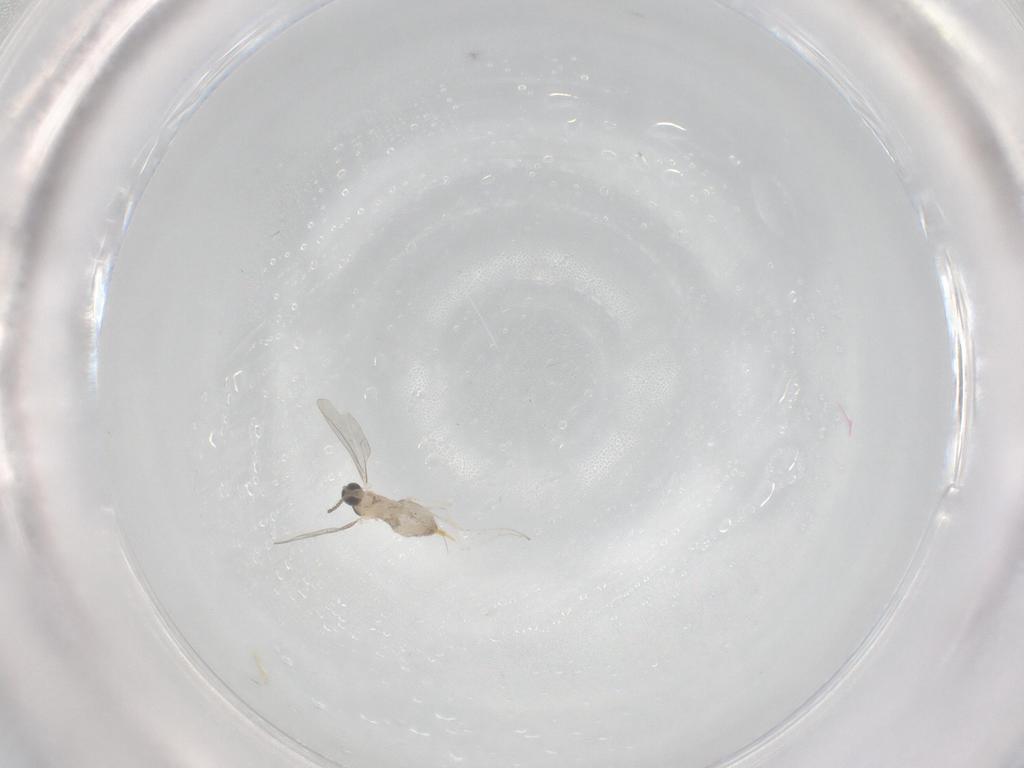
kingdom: Animalia
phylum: Arthropoda
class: Insecta
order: Diptera
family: Cecidomyiidae
